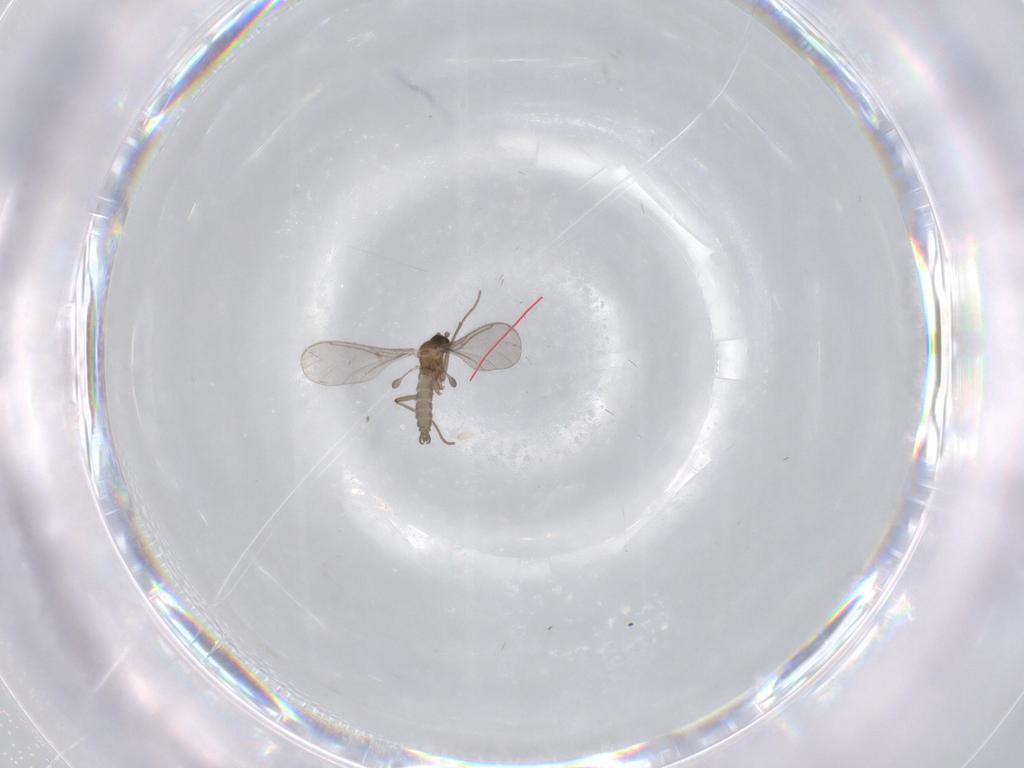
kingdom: Animalia
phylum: Arthropoda
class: Insecta
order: Diptera
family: Sciaridae
